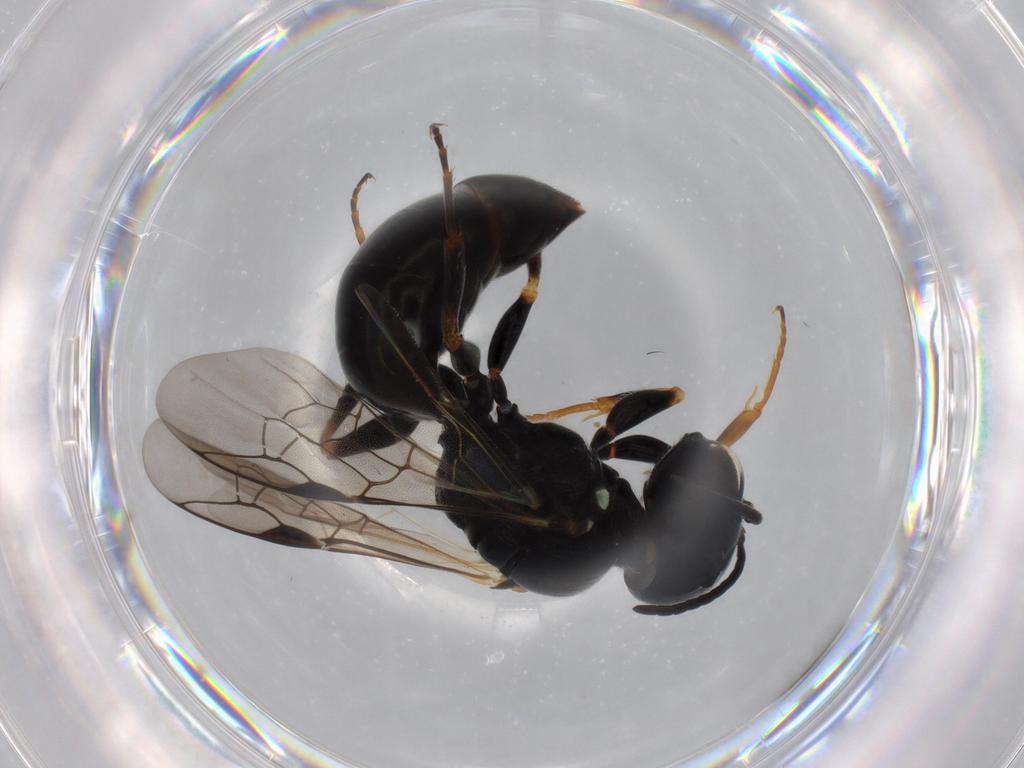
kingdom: Animalia
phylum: Arthropoda
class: Insecta
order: Hymenoptera
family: Crabronidae
